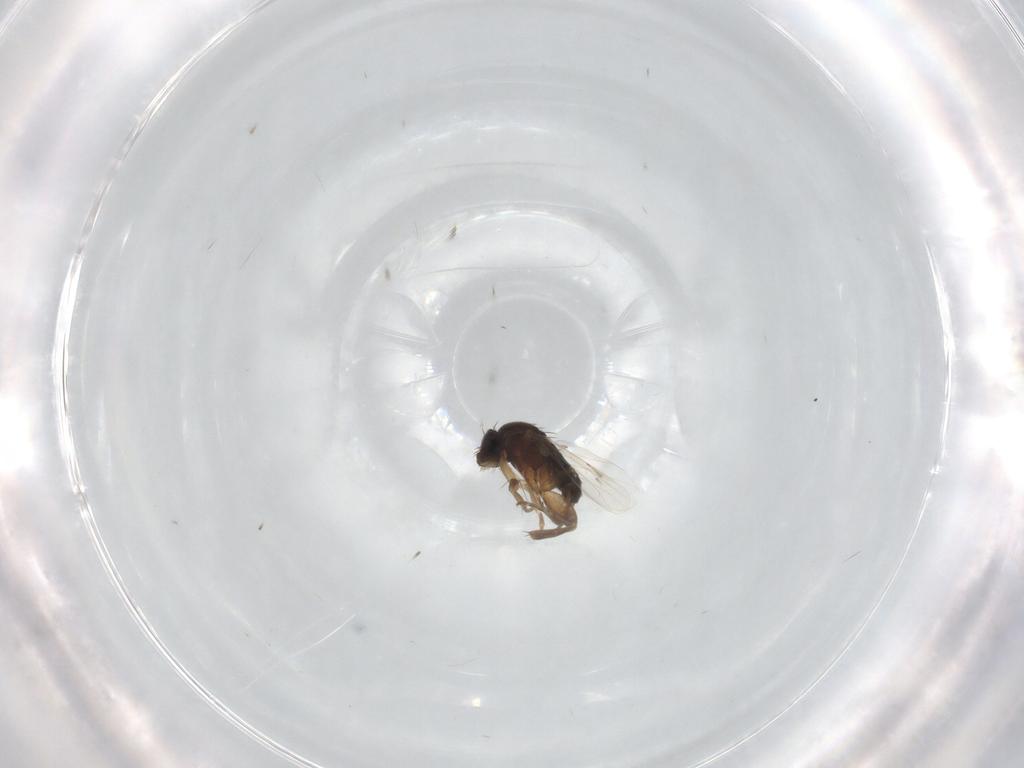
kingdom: Animalia
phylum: Arthropoda
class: Insecta
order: Diptera
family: Phoridae
